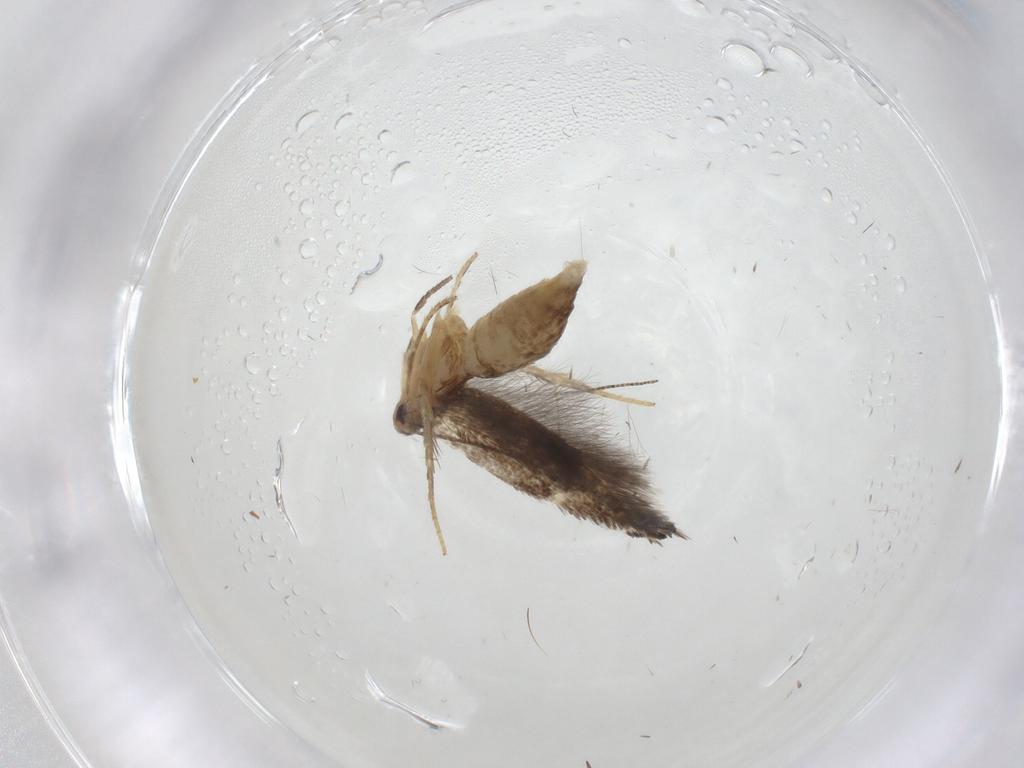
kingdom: Animalia
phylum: Arthropoda
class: Insecta
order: Lepidoptera
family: Elachistidae
